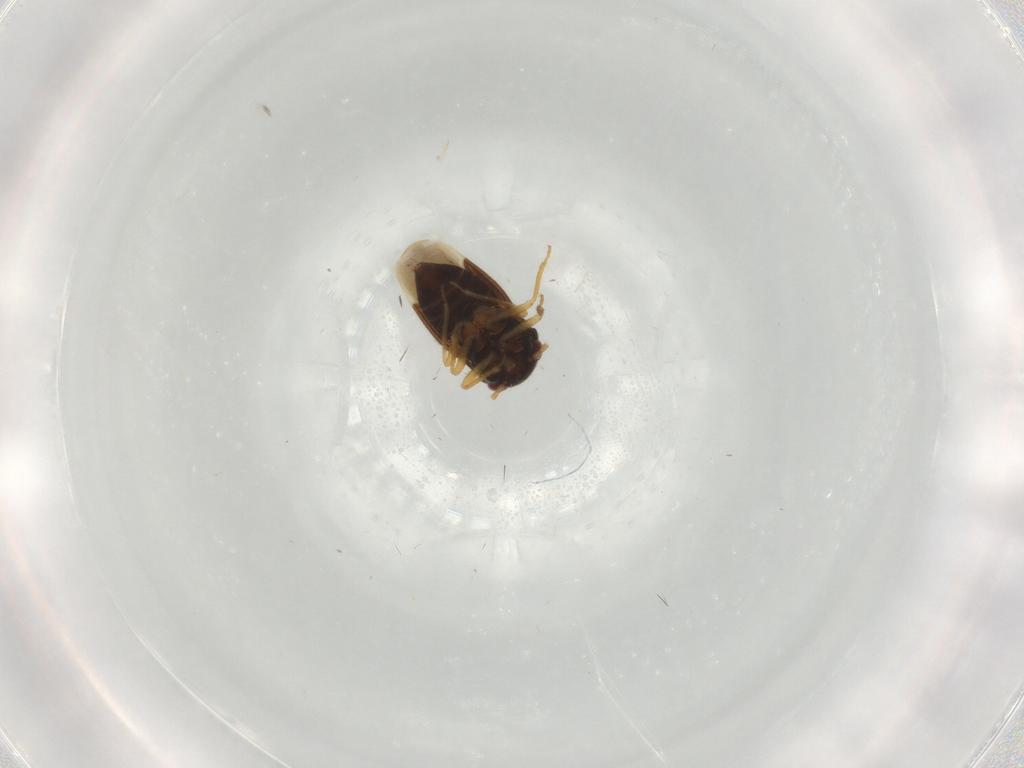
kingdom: Animalia
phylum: Arthropoda
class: Insecta
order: Hemiptera
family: Schizopteridae
